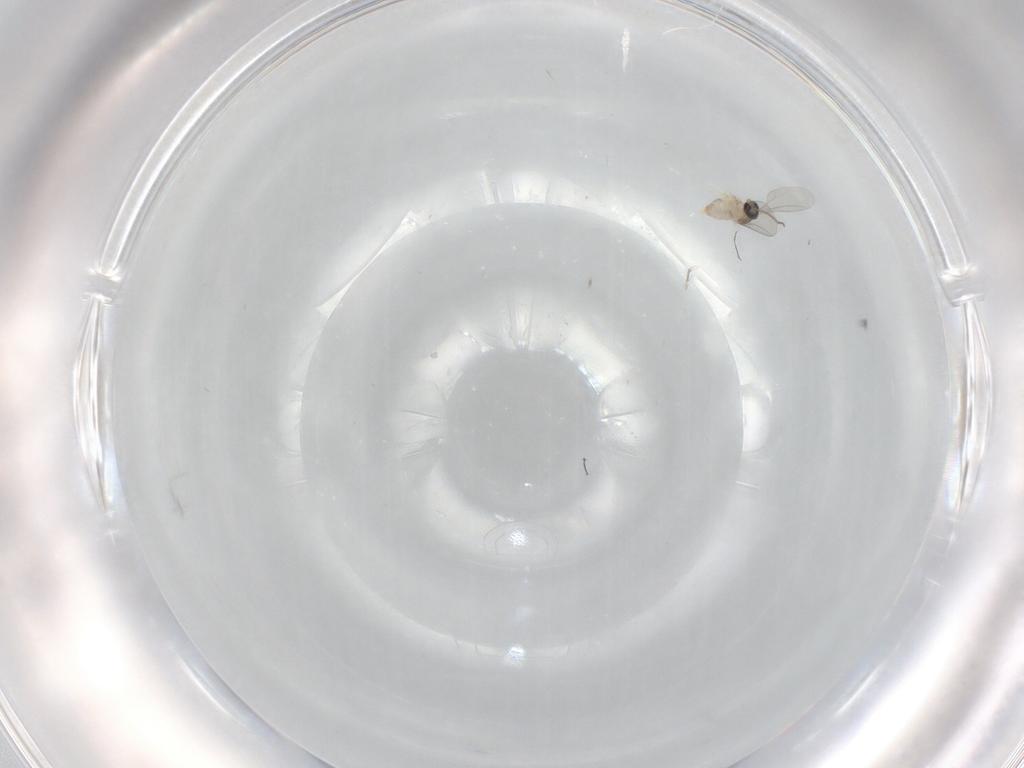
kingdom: Animalia
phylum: Arthropoda
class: Insecta
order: Diptera
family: Cecidomyiidae
